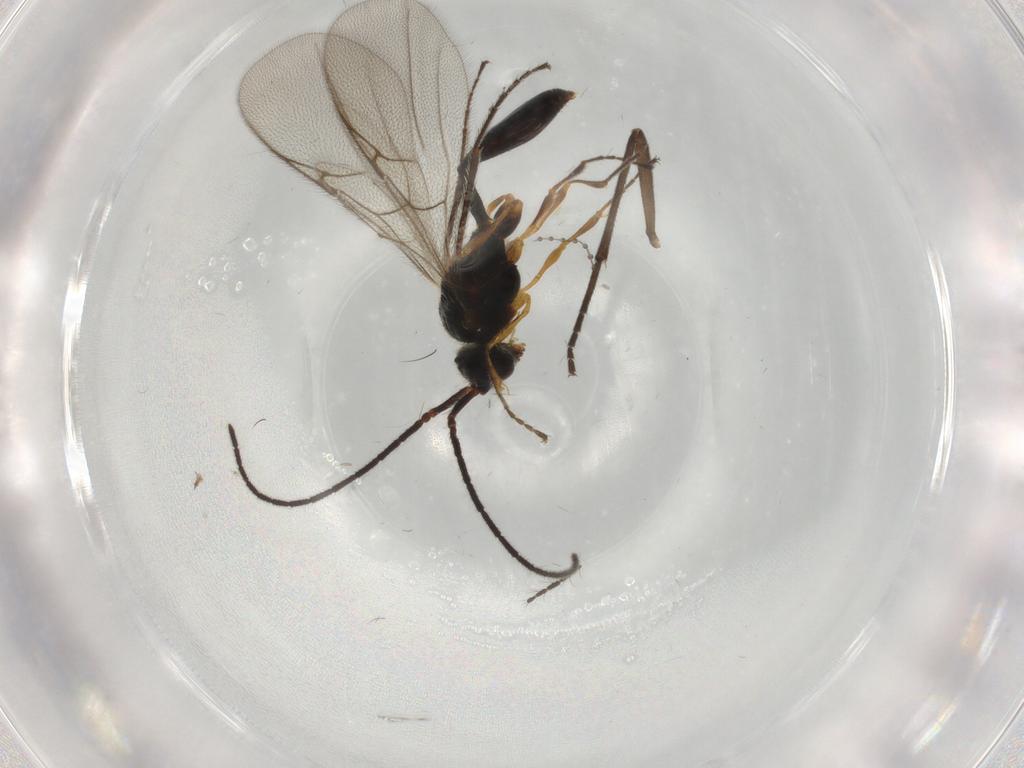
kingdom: Animalia
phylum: Arthropoda
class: Insecta
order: Hymenoptera
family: Diapriidae
